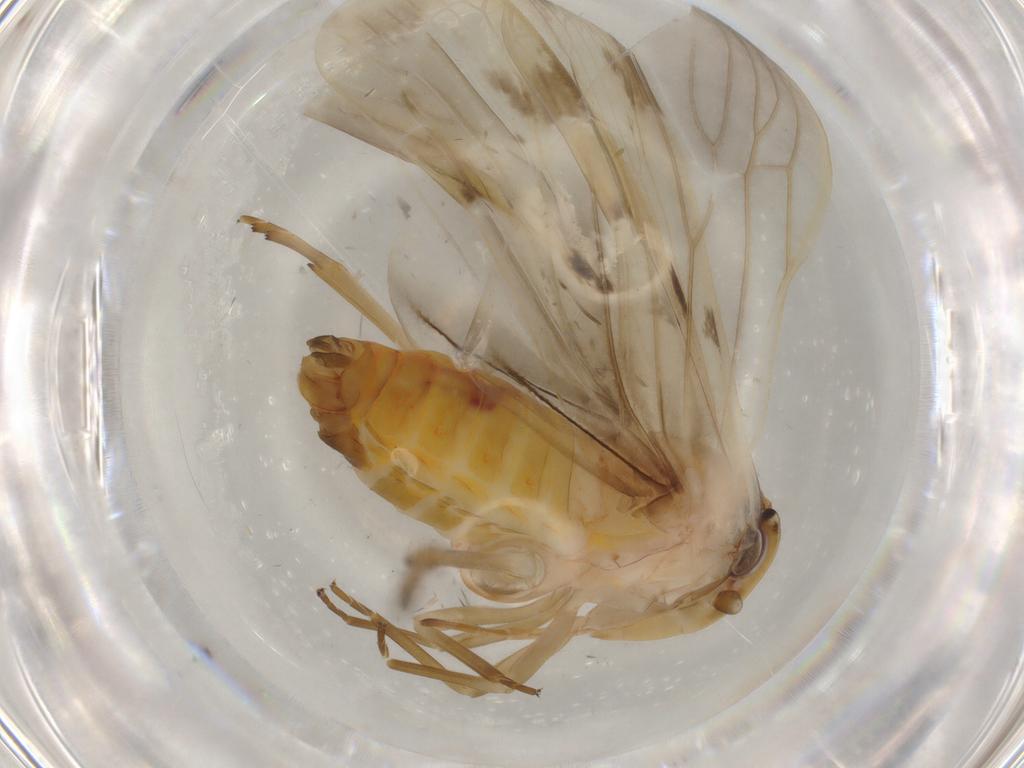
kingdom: Animalia
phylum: Arthropoda
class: Insecta
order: Hemiptera
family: Achilidae
